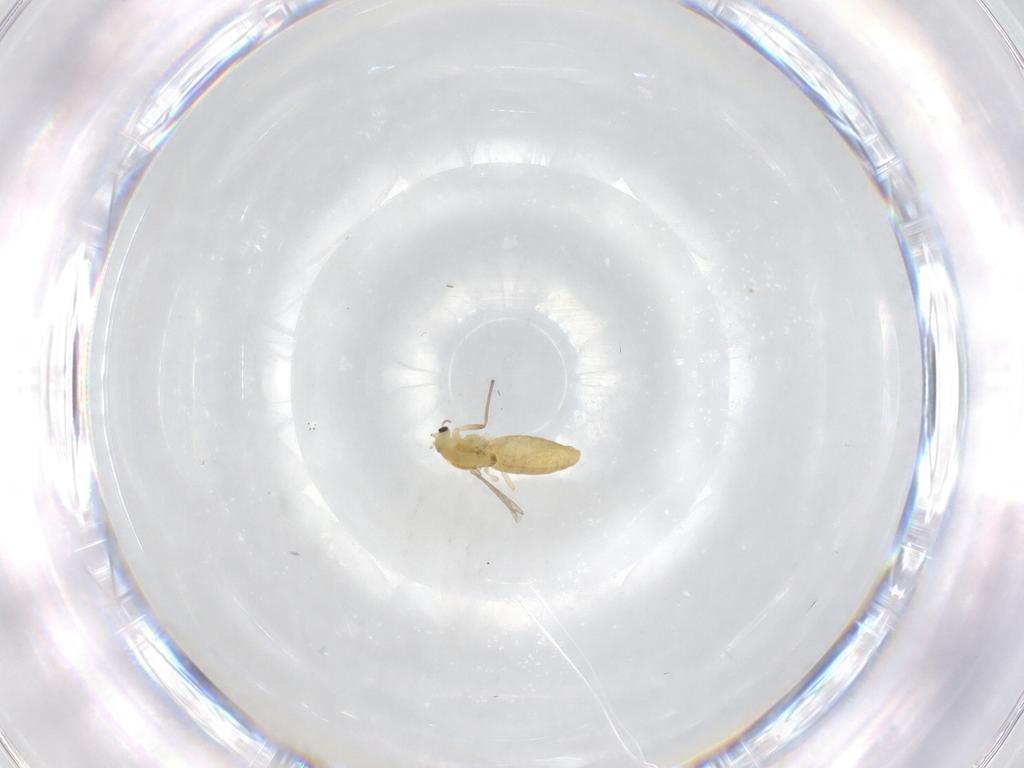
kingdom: Animalia
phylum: Arthropoda
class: Insecta
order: Diptera
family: Chironomidae
